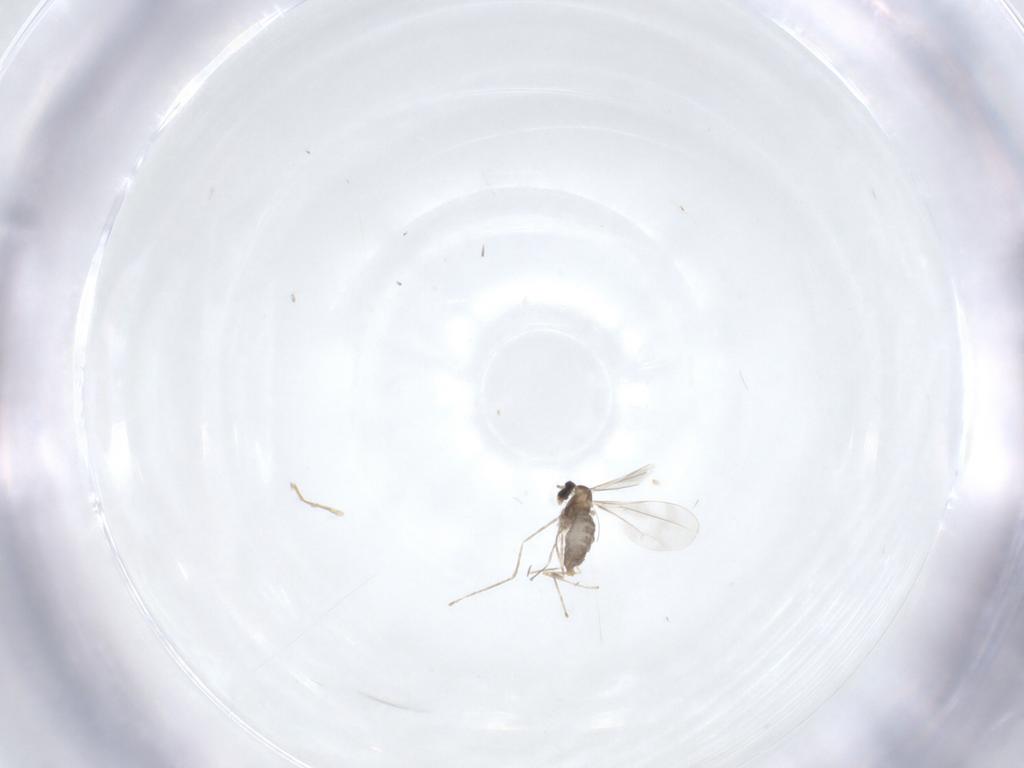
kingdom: Animalia
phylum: Arthropoda
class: Insecta
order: Diptera
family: Cecidomyiidae
